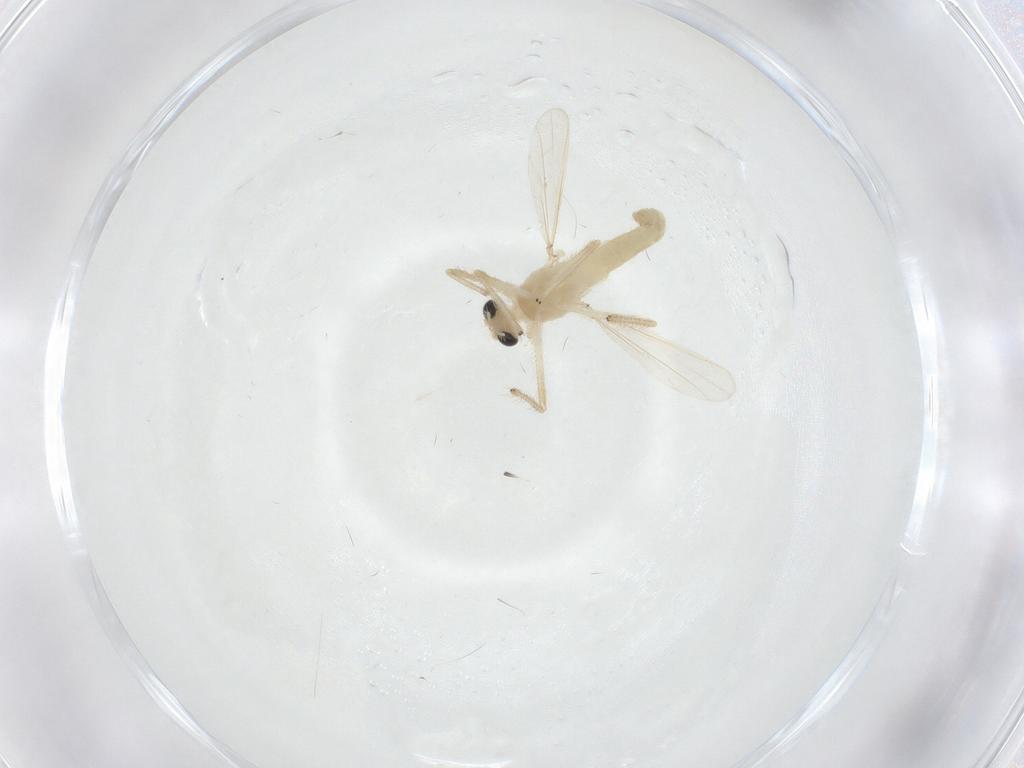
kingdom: Animalia
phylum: Arthropoda
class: Insecta
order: Diptera
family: Chironomidae
